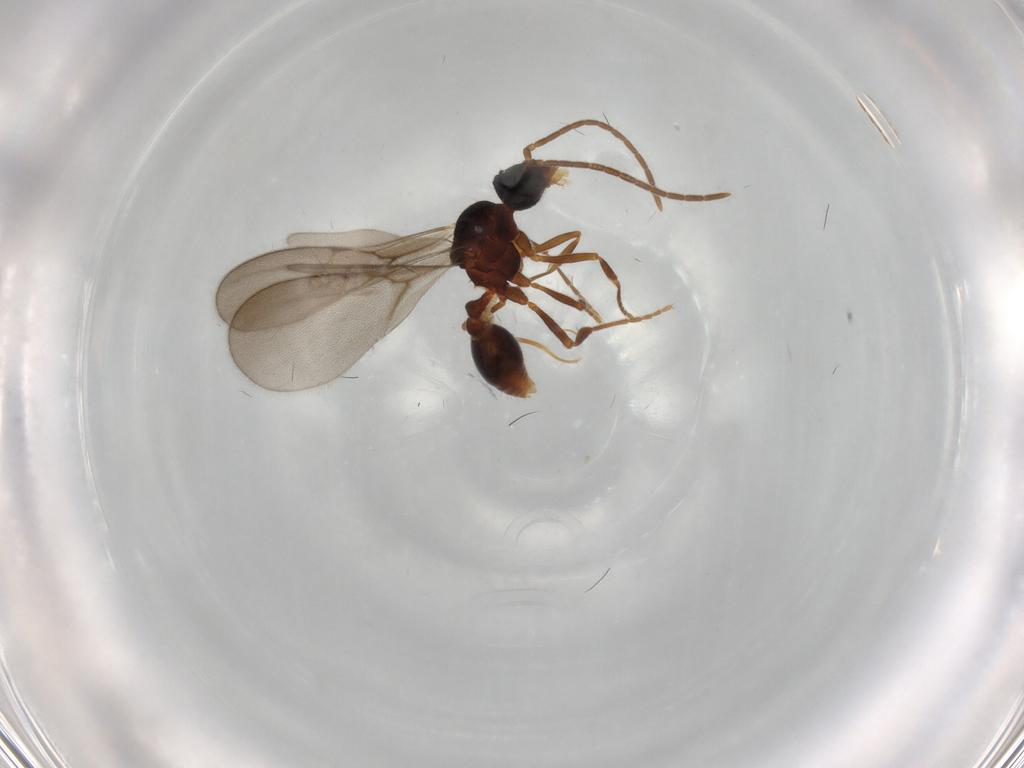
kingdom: Animalia
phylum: Arthropoda
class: Insecta
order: Hymenoptera
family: Formicidae
